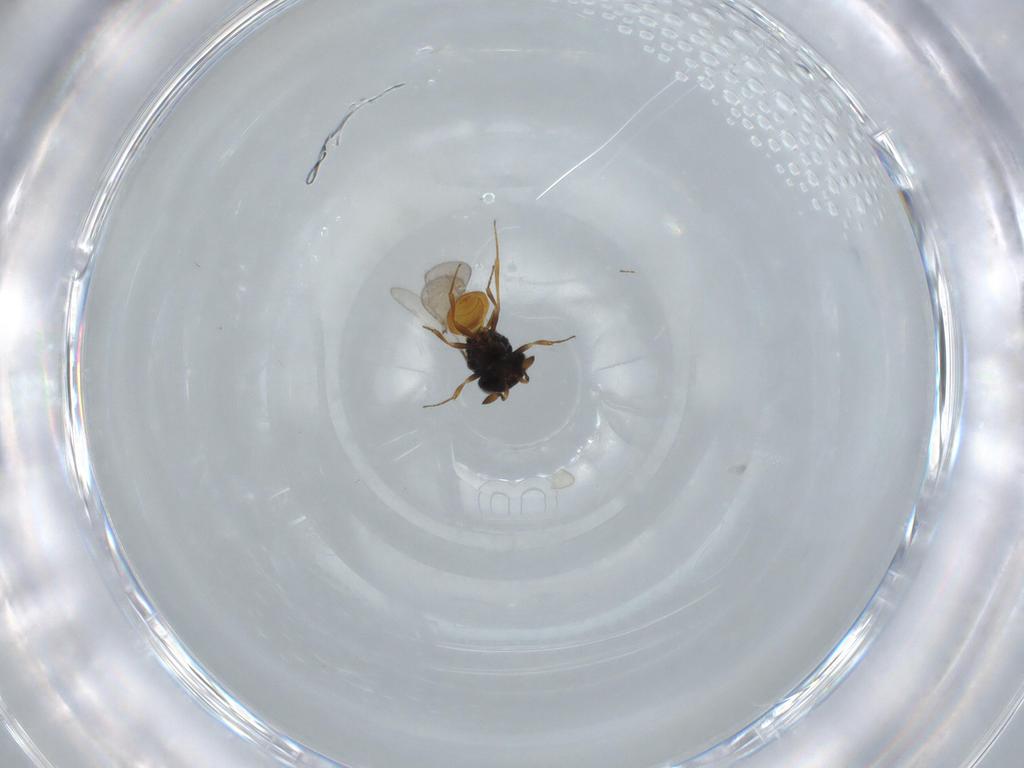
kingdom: Animalia
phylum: Arthropoda
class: Insecta
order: Hymenoptera
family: Scelionidae
